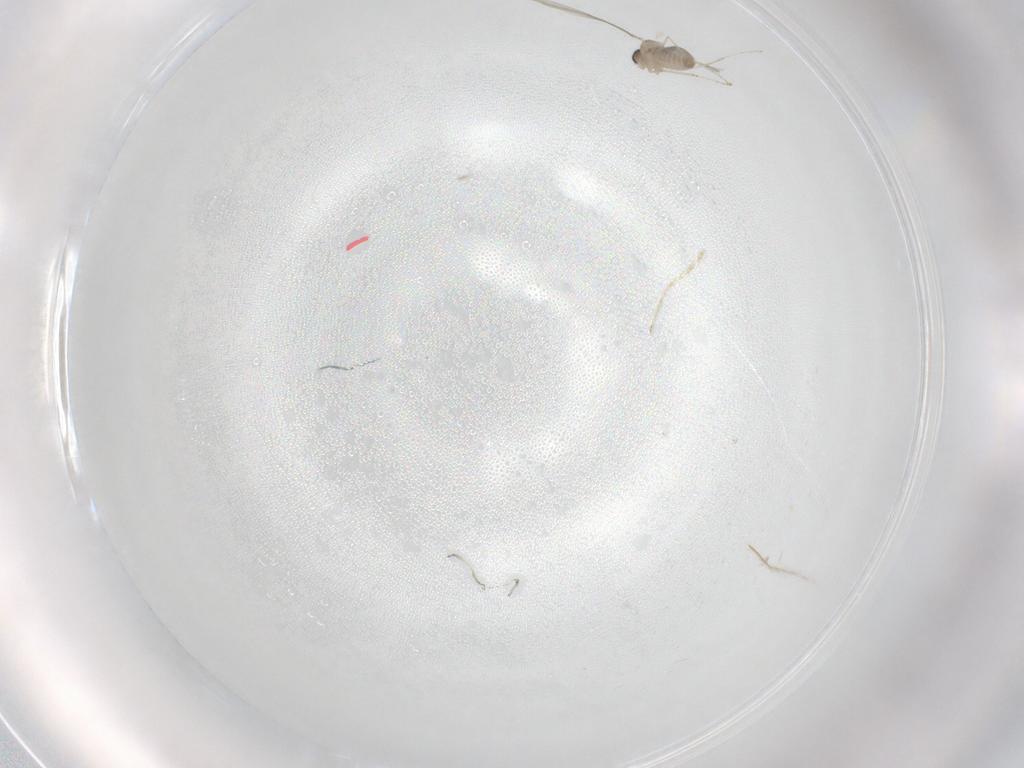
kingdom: Animalia
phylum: Arthropoda
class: Insecta
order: Diptera
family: Cecidomyiidae
